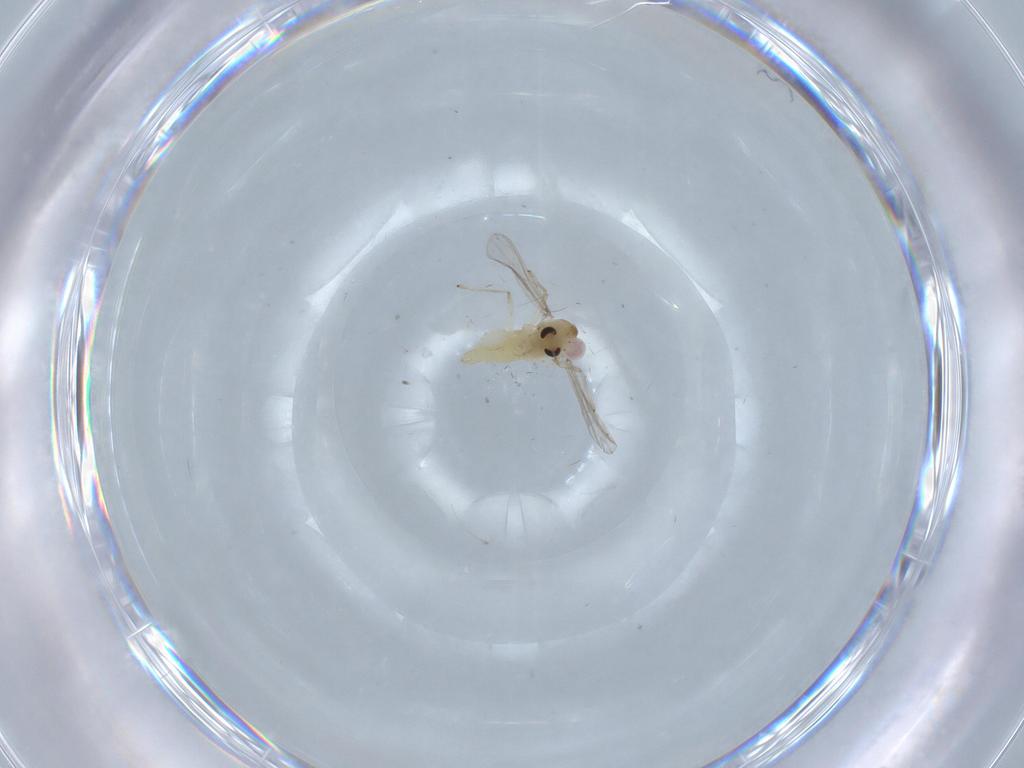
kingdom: Animalia
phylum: Arthropoda
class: Insecta
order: Diptera
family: Chironomidae
